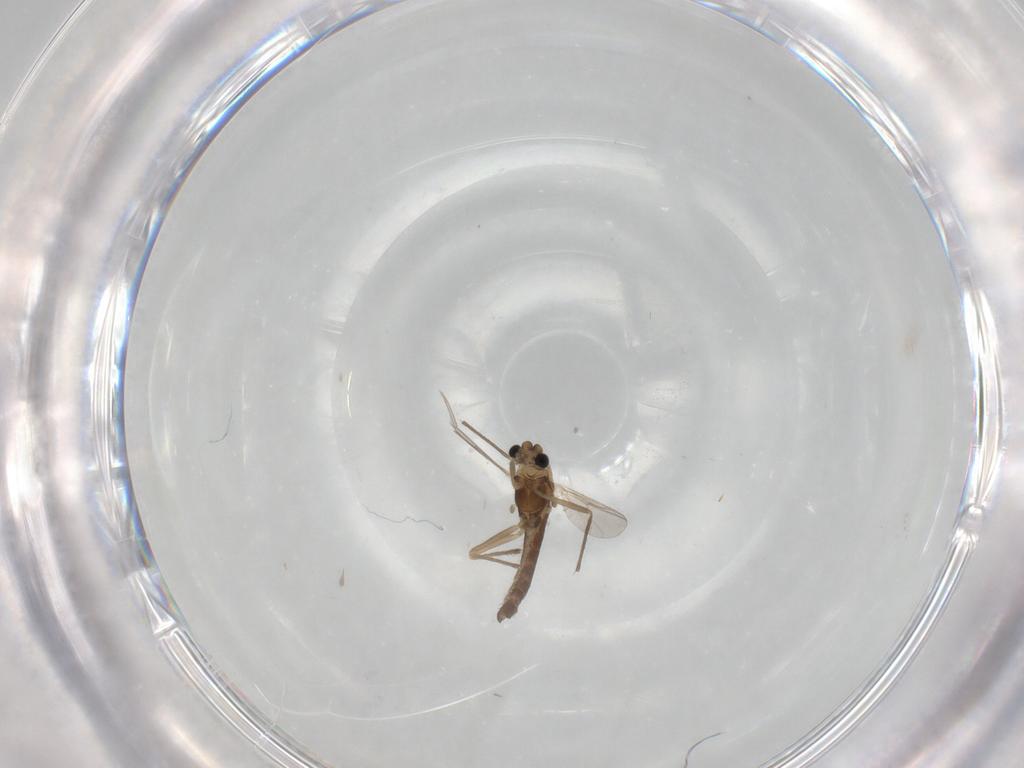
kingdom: Animalia
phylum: Arthropoda
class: Insecta
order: Diptera
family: Chironomidae
